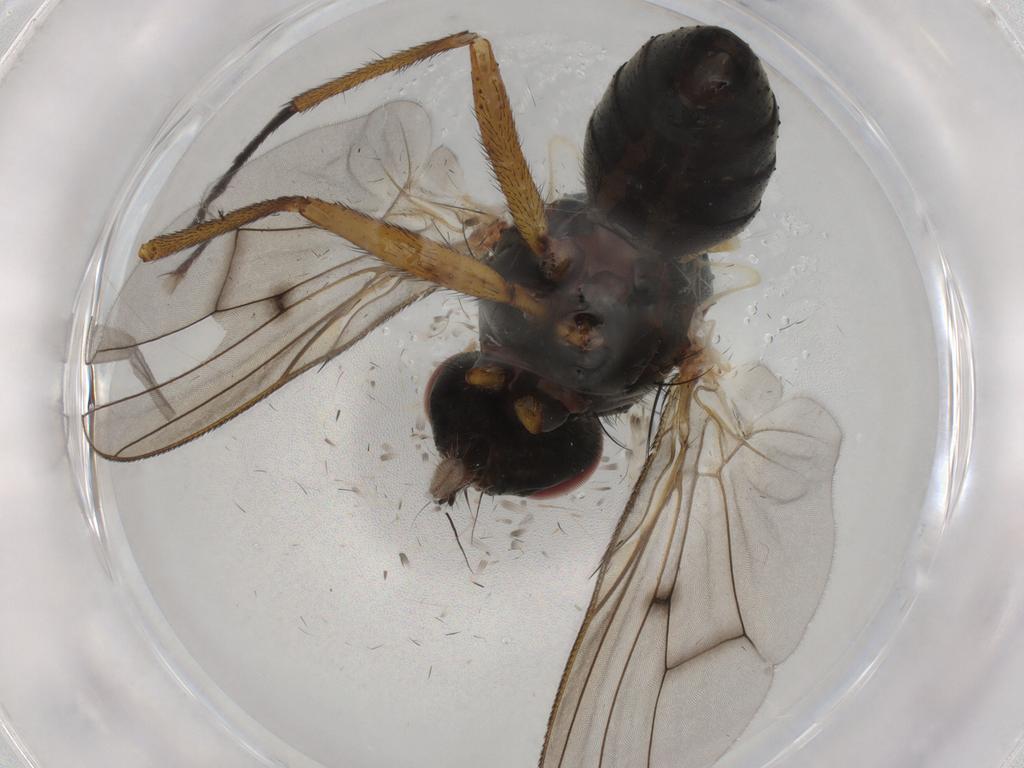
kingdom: Animalia
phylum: Arthropoda
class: Insecta
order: Diptera
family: Muscidae
